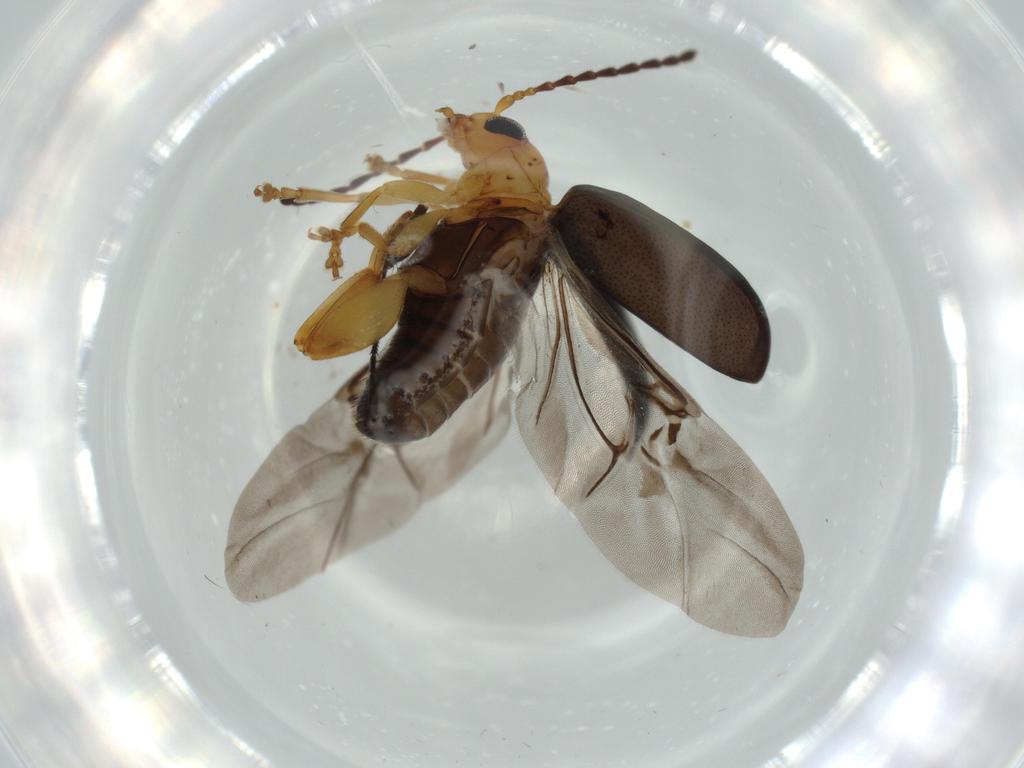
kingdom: Animalia
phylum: Arthropoda
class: Insecta
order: Coleoptera
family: Chrysomelidae
